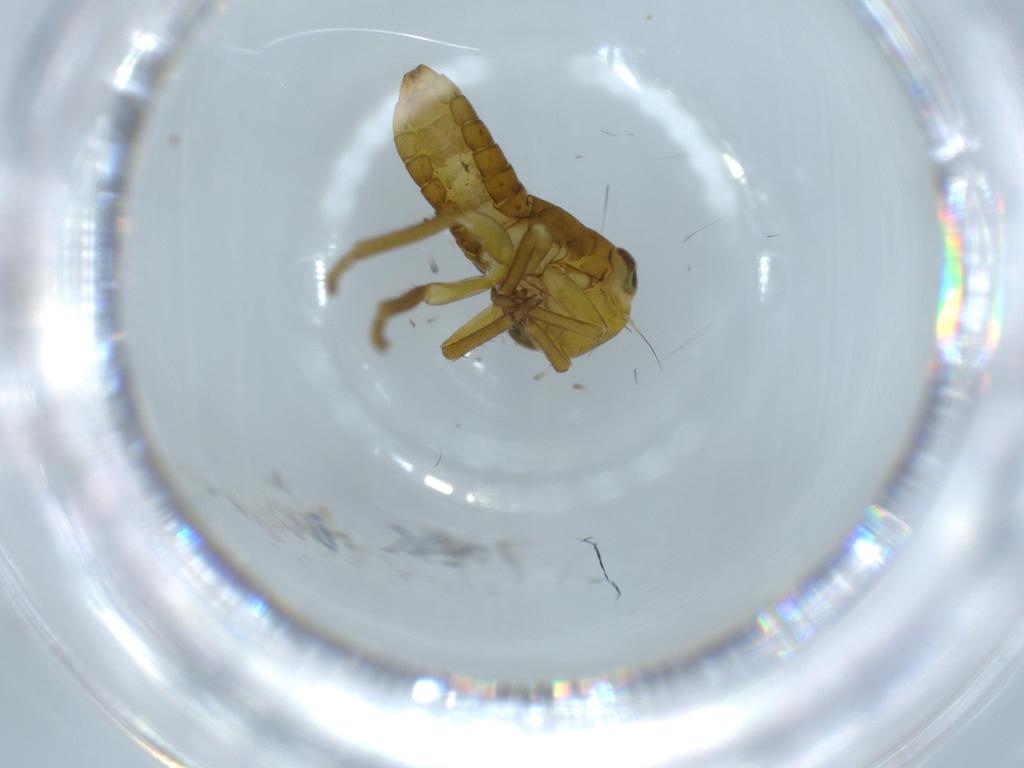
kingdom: Animalia
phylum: Arthropoda
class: Insecta
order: Hemiptera
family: Cicadellidae
